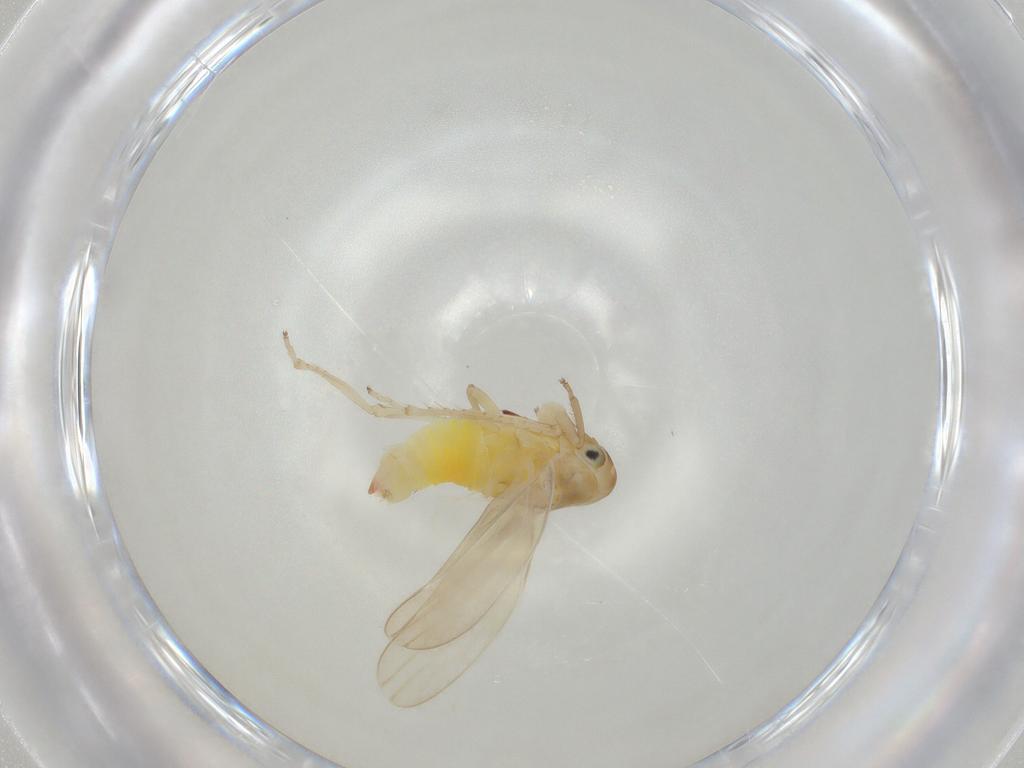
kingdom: Animalia
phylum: Arthropoda
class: Insecta
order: Hemiptera
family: Cicadellidae
